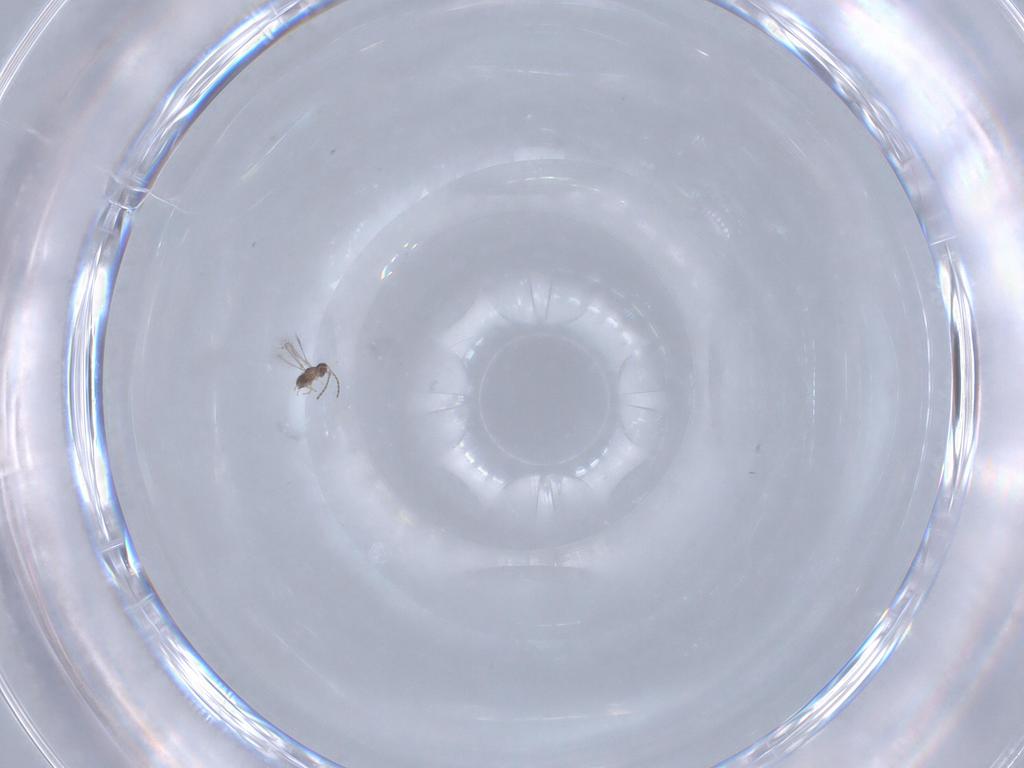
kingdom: Animalia
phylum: Arthropoda
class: Insecta
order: Hymenoptera
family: Mymaridae
